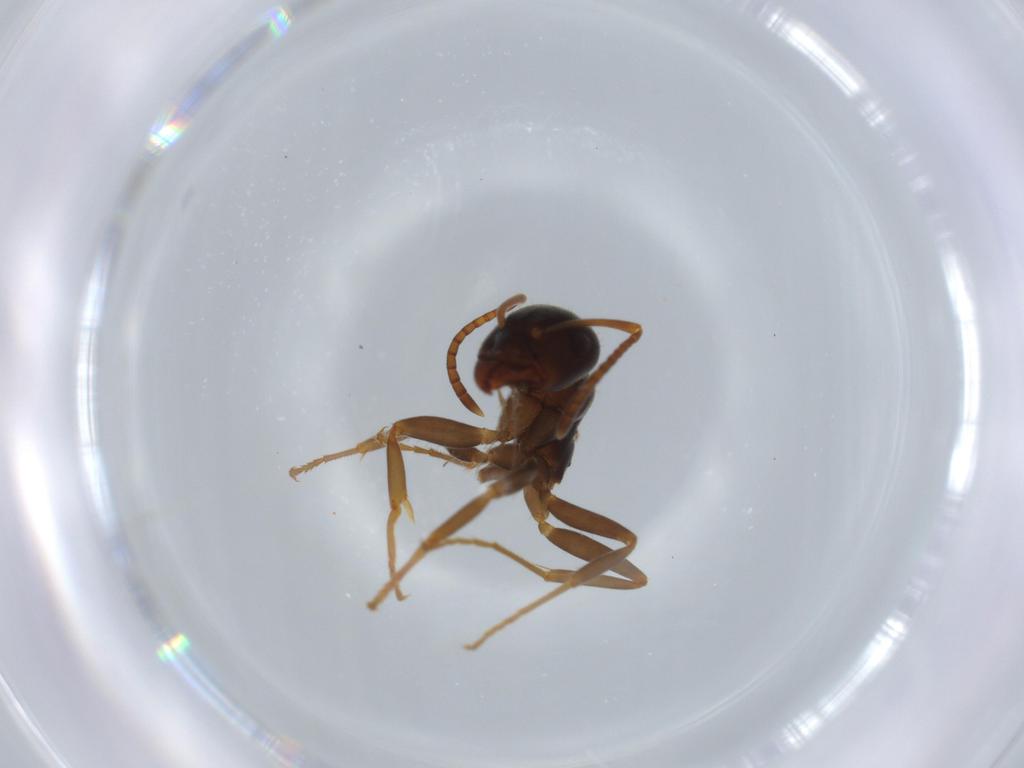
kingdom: Animalia
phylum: Arthropoda
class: Insecta
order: Hymenoptera
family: Formicidae
